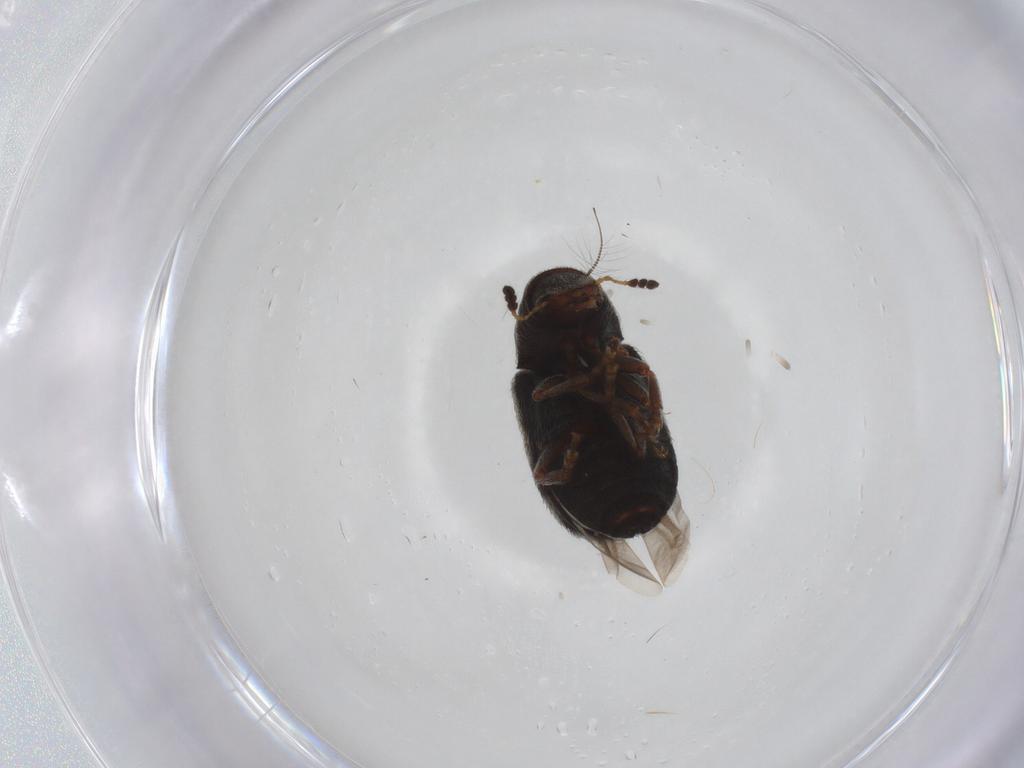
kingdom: Animalia
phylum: Arthropoda
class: Insecta
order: Coleoptera
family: Anthribidae
